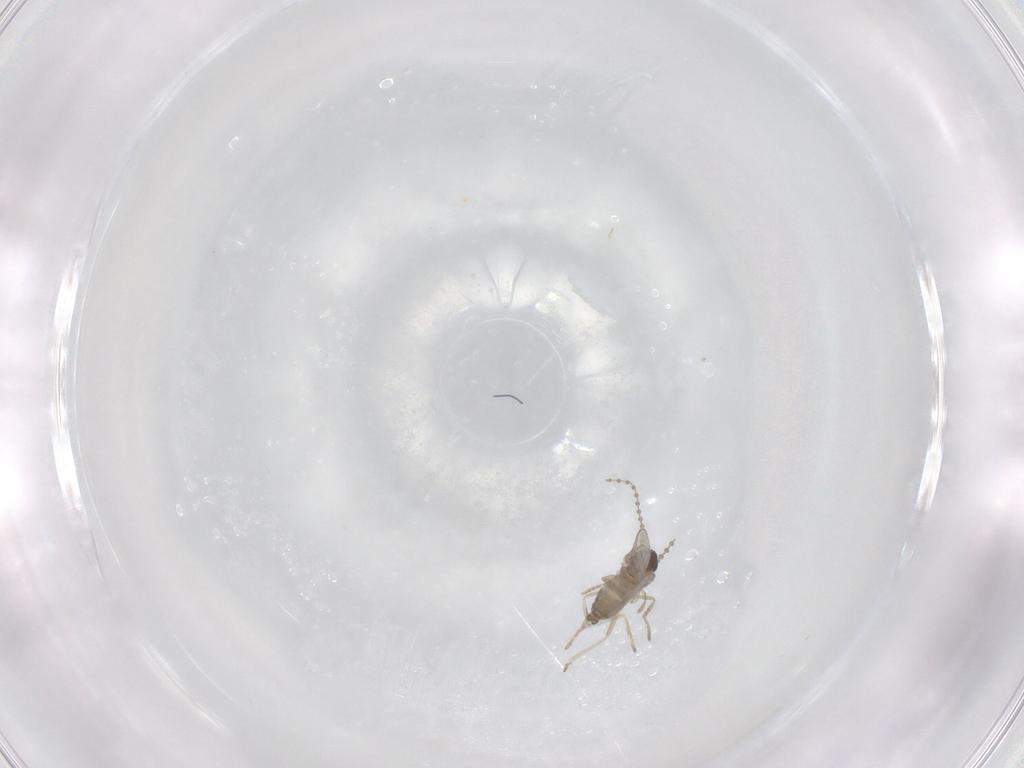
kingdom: Animalia
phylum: Arthropoda
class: Insecta
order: Diptera
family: Cecidomyiidae
